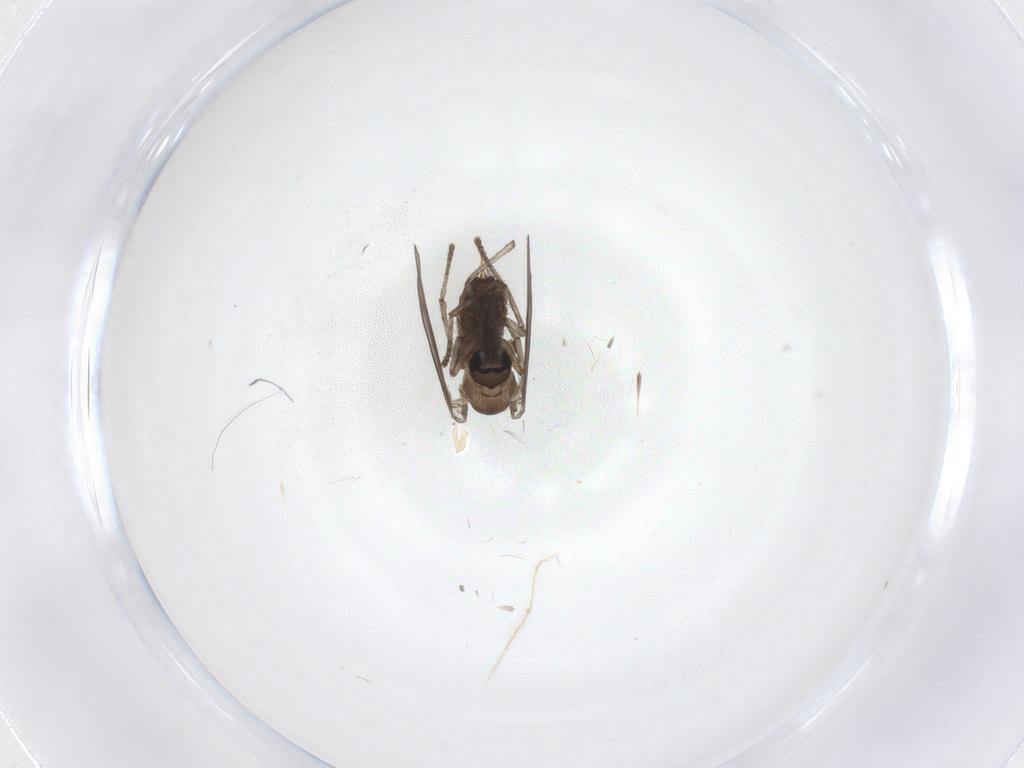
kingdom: Animalia
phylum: Arthropoda
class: Insecta
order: Diptera
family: Psychodidae
